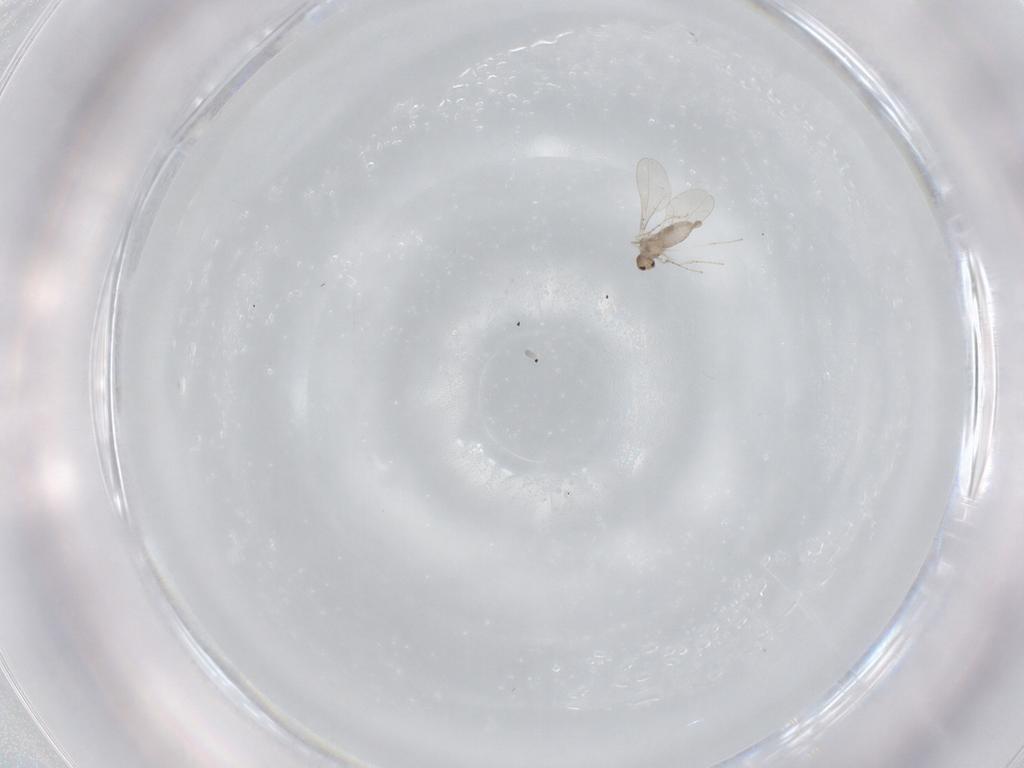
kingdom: Animalia
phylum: Arthropoda
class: Insecta
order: Diptera
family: Cecidomyiidae
